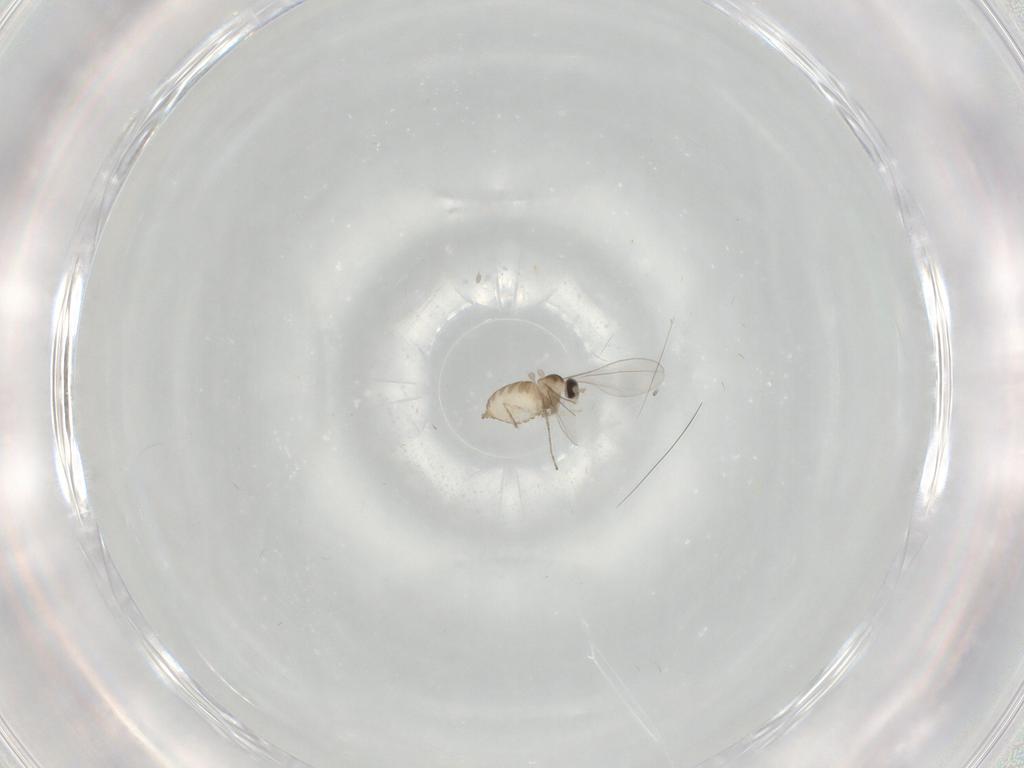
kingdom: Animalia
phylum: Arthropoda
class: Insecta
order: Diptera
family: Cecidomyiidae
